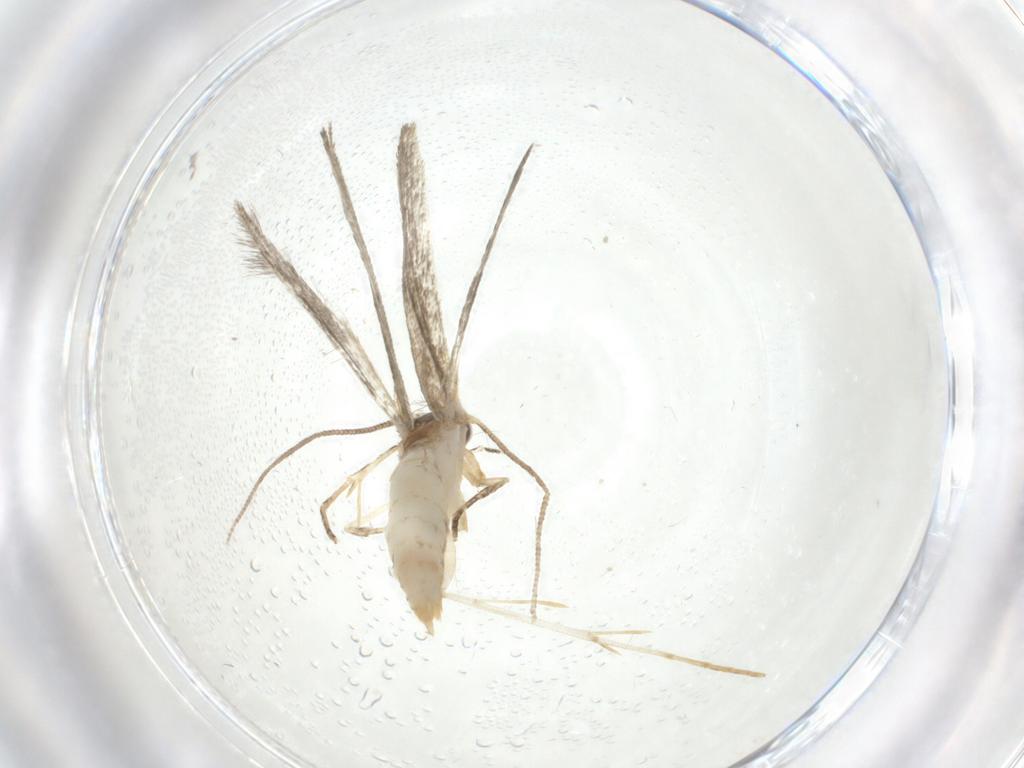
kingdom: Animalia
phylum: Arthropoda
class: Insecta
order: Lepidoptera
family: Tineidae
